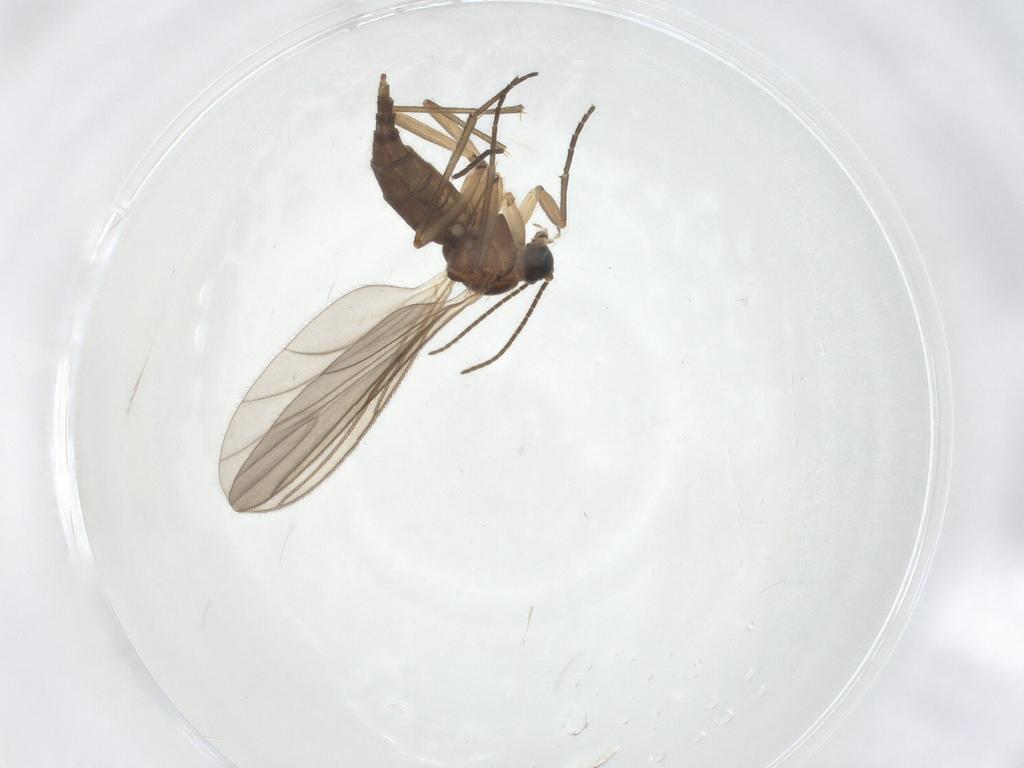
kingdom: Animalia
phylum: Arthropoda
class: Insecta
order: Diptera
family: Sciaridae
